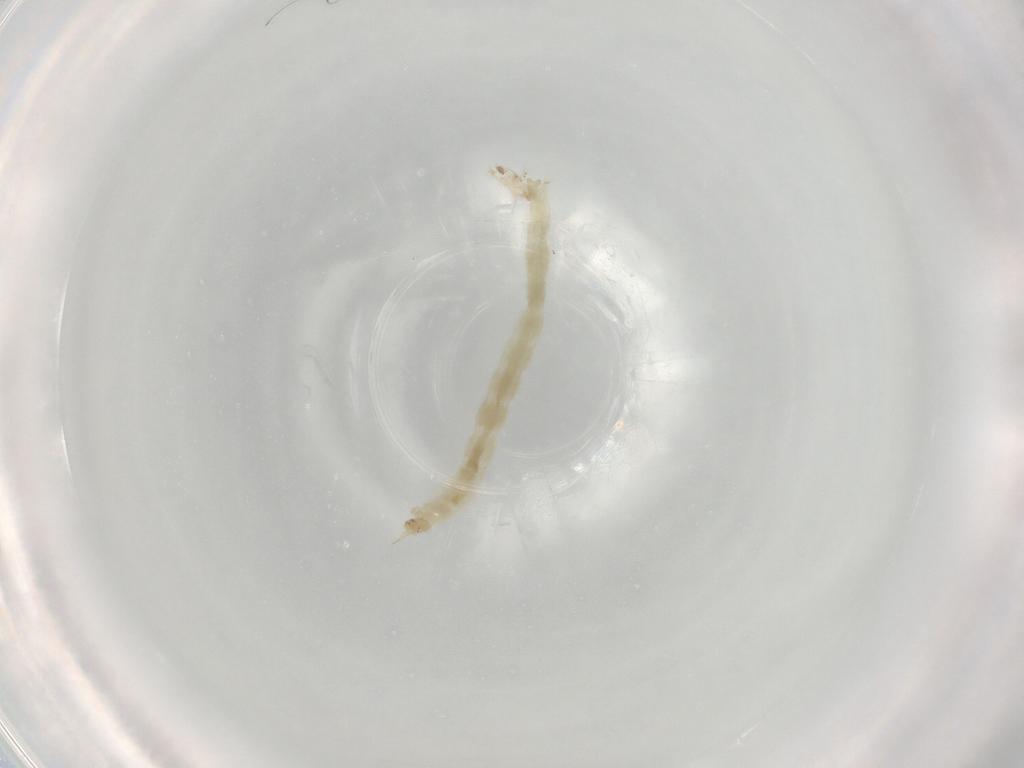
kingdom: Animalia
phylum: Arthropoda
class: Insecta
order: Diptera
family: Chironomidae
